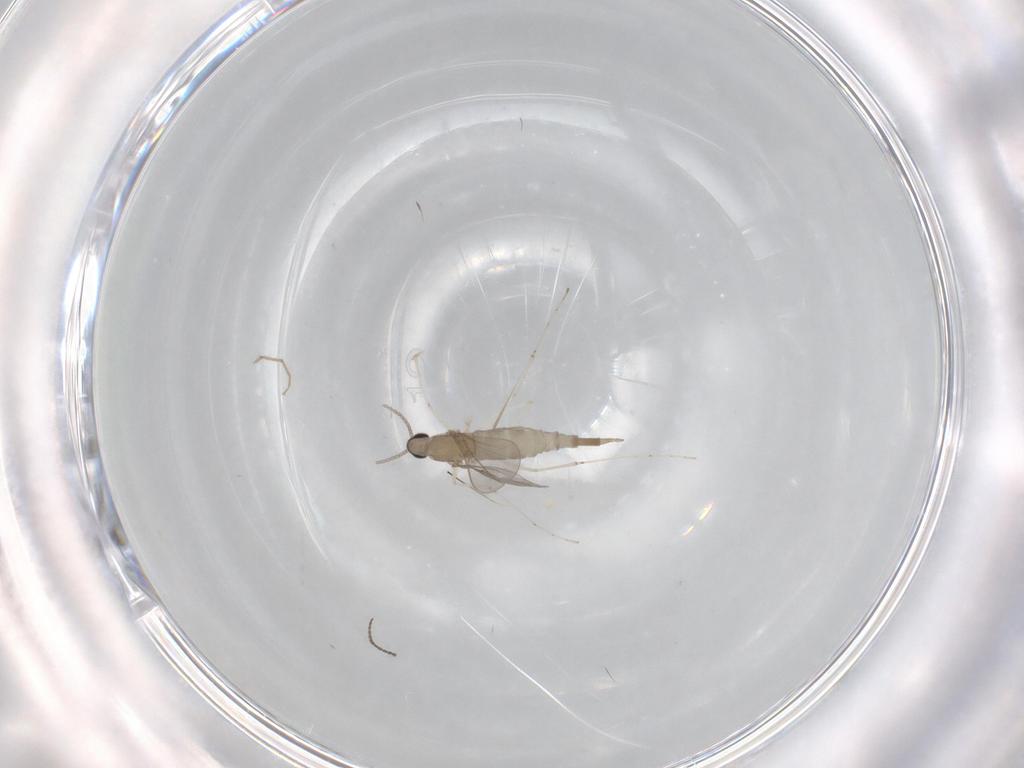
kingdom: Animalia
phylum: Arthropoda
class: Insecta
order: Diptera
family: Cecidomyiidae
